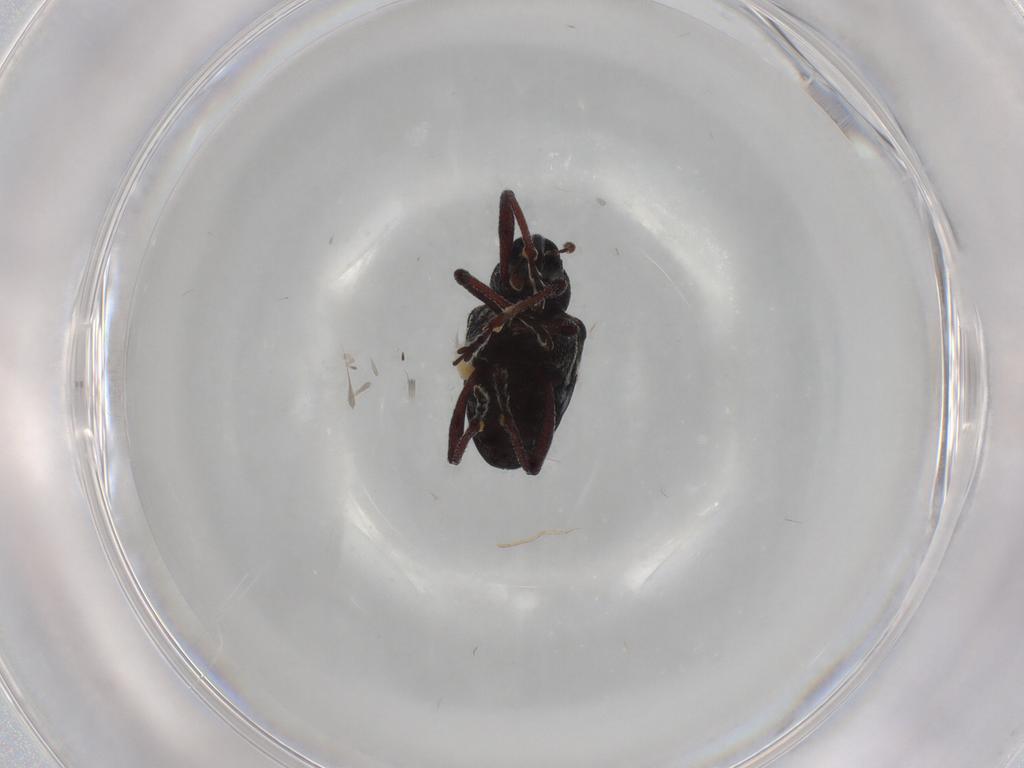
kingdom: Animalia
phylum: Arthropoda
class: Insecta
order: Coleoptera
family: Curculionidae
